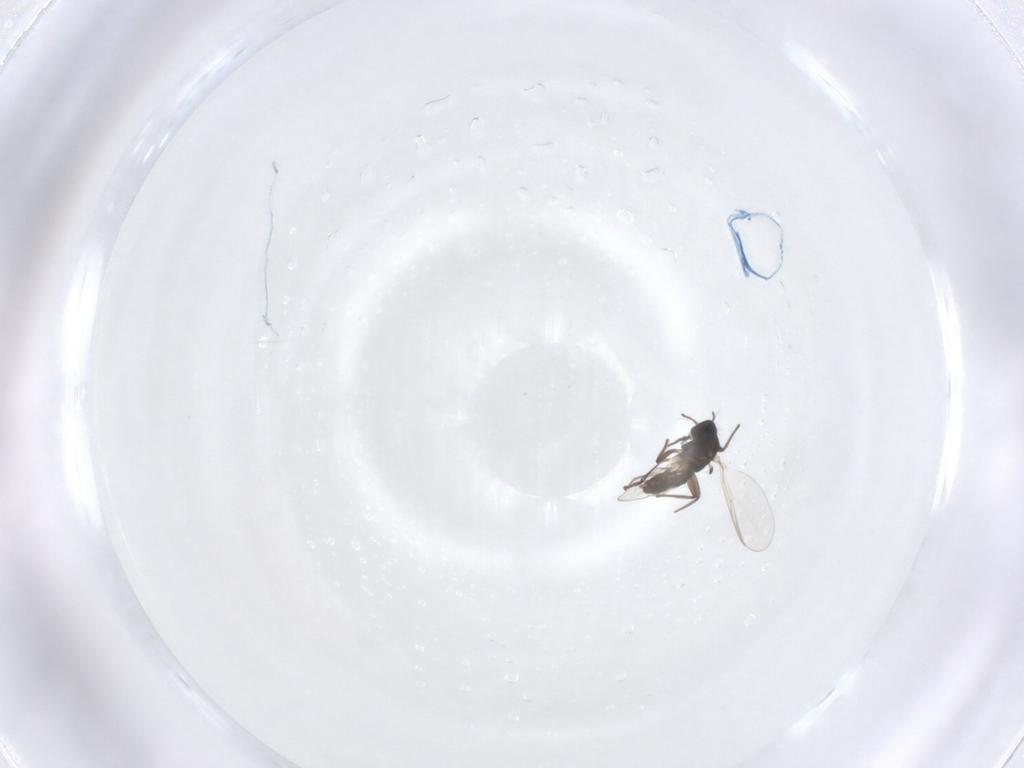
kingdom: Animalia
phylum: Arthropoda
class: Insecta
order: Diptera
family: Chironomidae
